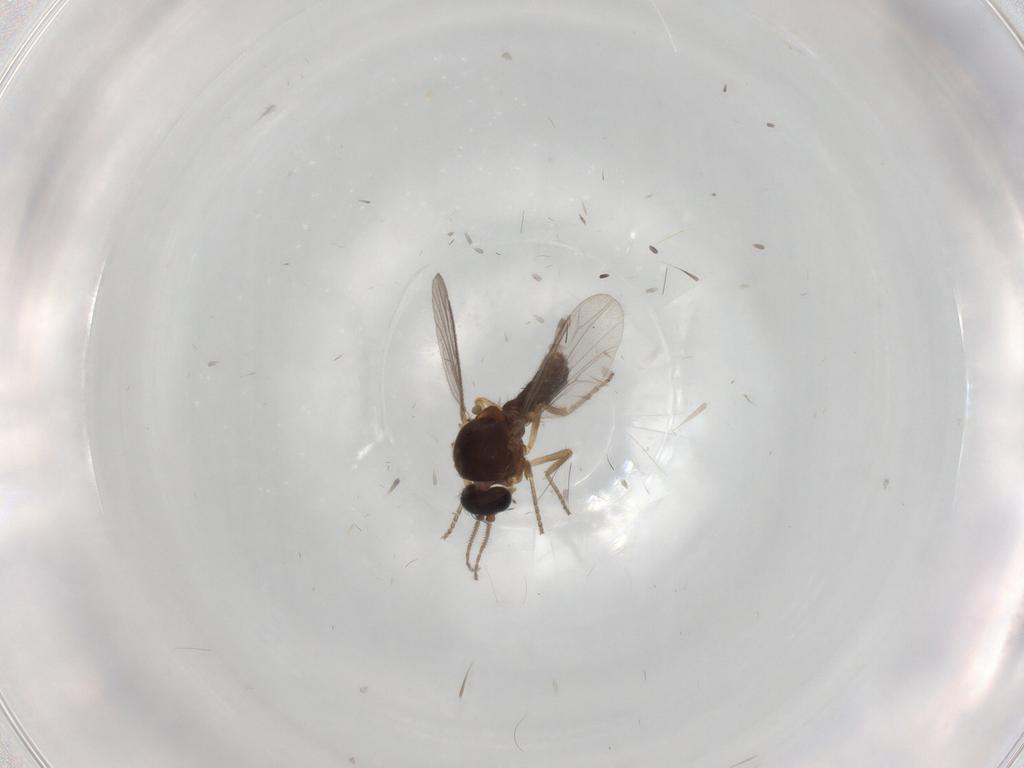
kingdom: Animalia
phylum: Arthropoda
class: Insecta
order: Diptera
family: Ceratopogonidae
